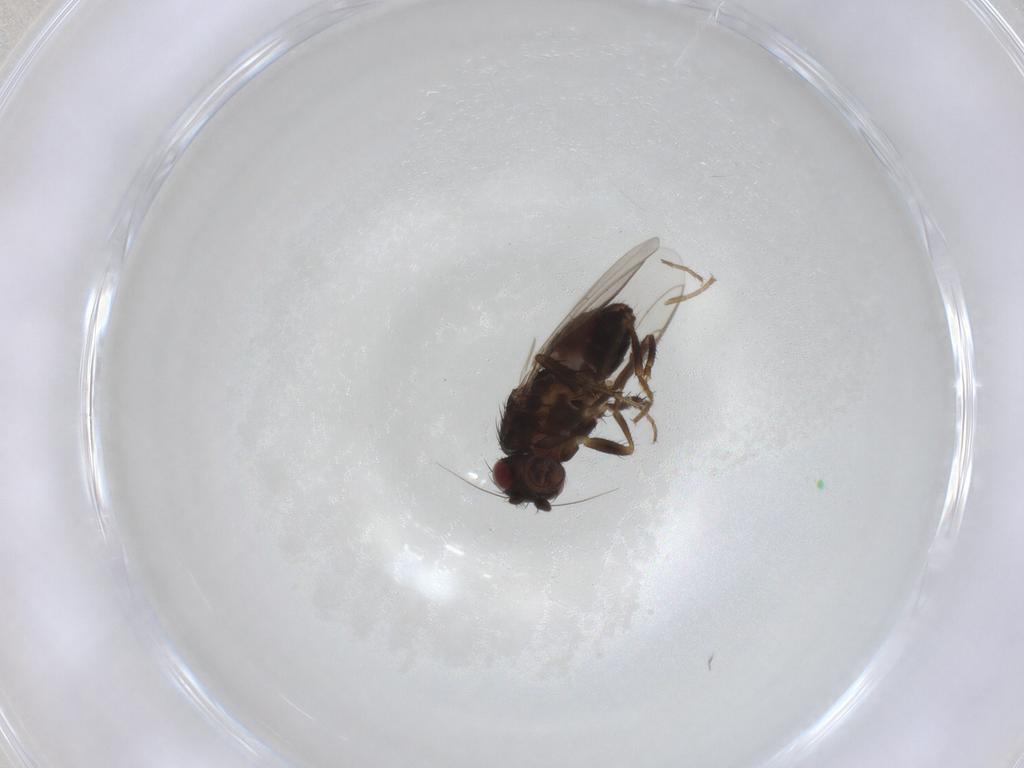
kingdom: Animalia
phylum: Arthropoda
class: Insecta
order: Diptera
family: Sphaeroceridae
